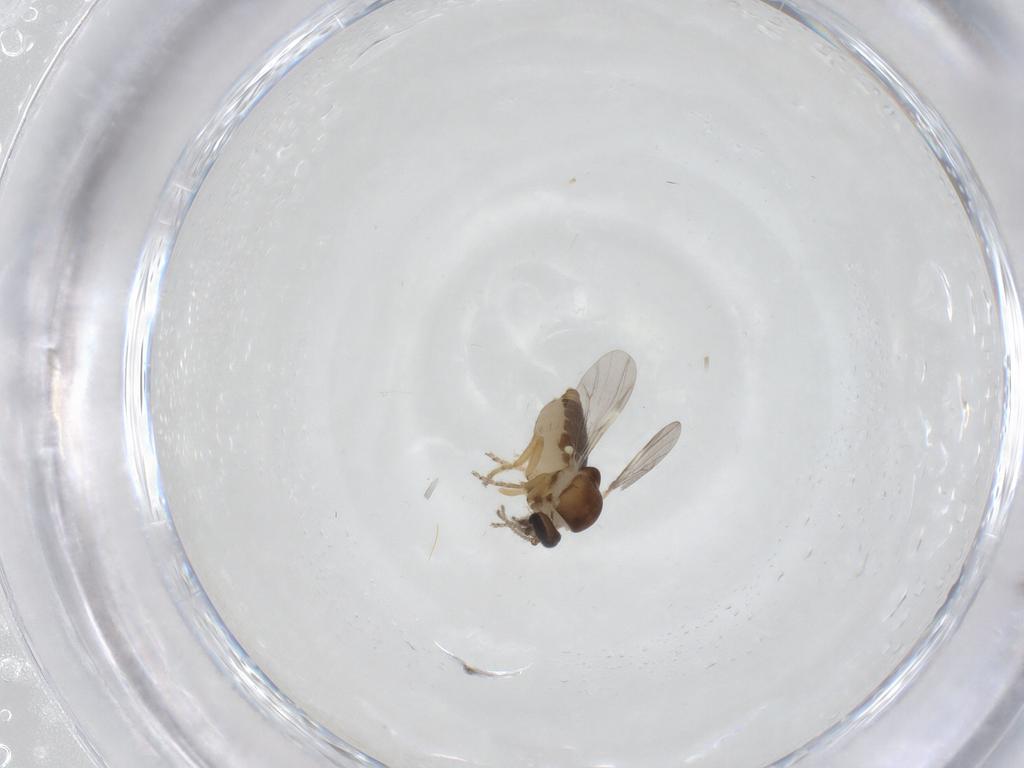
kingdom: Animalia
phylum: Arthropoda
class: Insecta
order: Diptera
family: Ceratopogonidae
